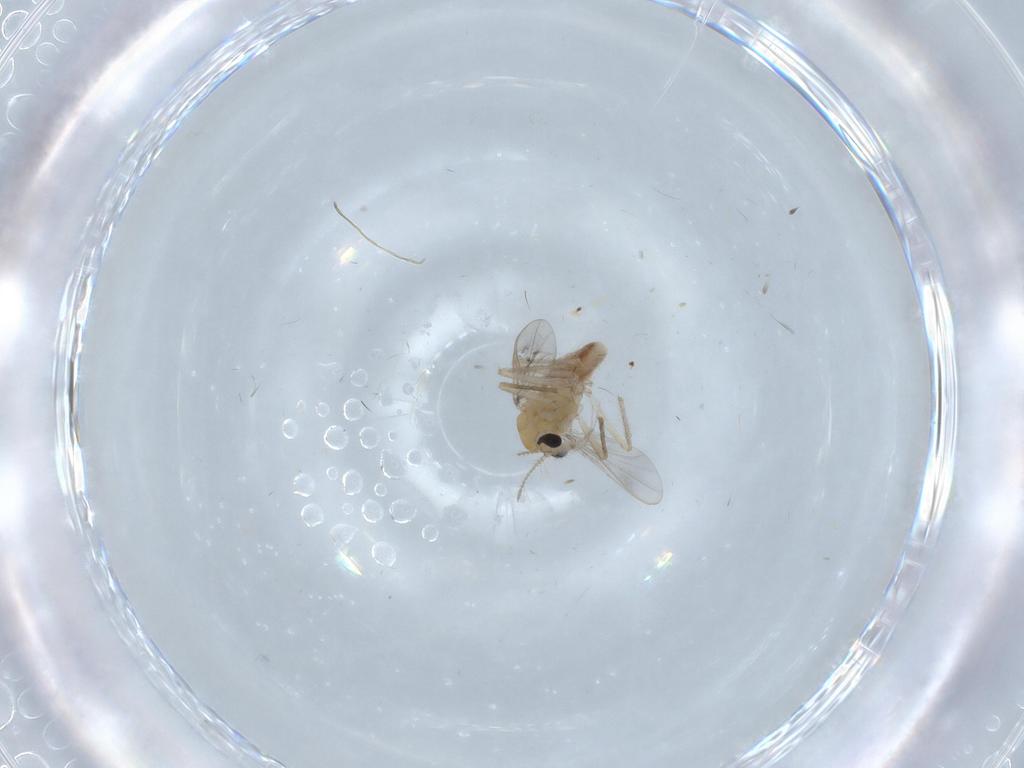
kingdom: Animalia
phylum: Arthropoda
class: Insecta
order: Diptera
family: Chironomidae
